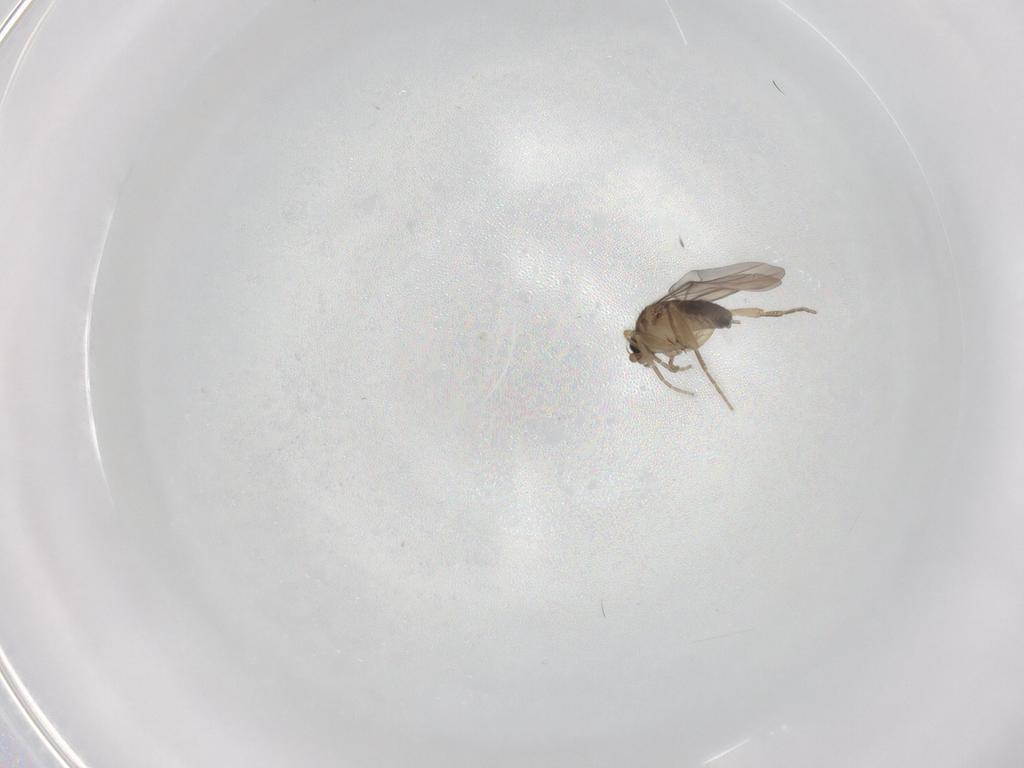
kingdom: Animalia
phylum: Arthropoda
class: Insecta
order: Diptera
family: Phoridae
